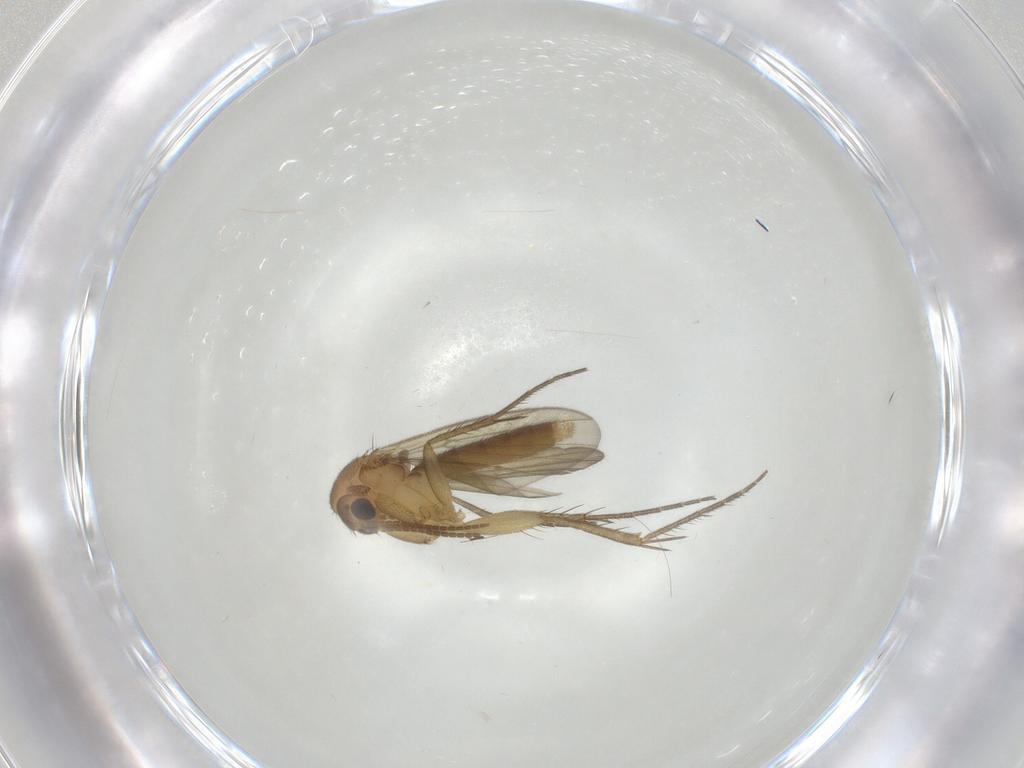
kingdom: Animalia
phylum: Arthropoda
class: Insecta
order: Diptera
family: Mycetophilidae
